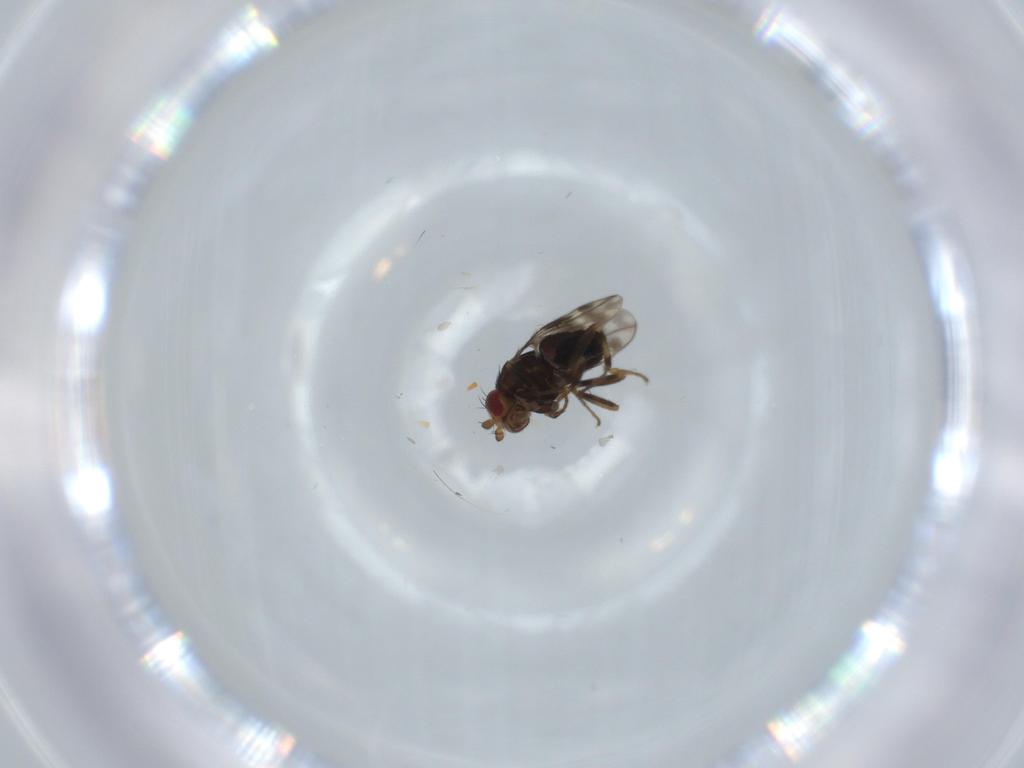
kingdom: Animalia
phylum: Arthropoda
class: Insecta
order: Diptera
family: Sphaeroceridae
